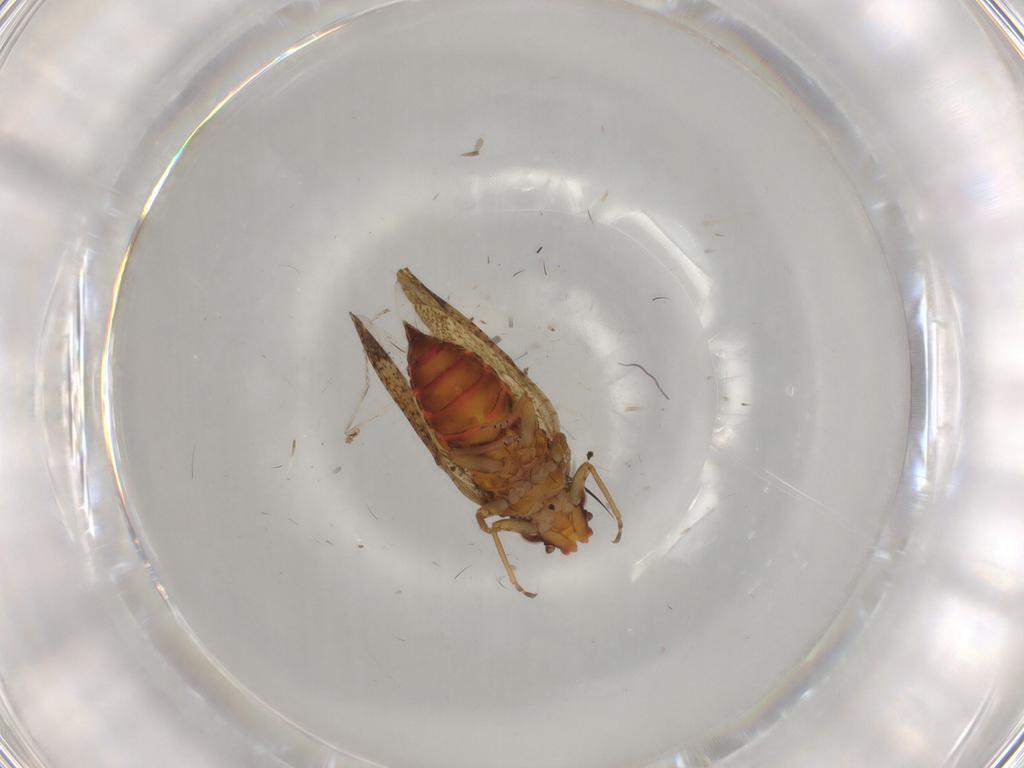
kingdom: Animalia
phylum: Arthropoda
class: Insecta
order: Hemiptera
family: Psyllidae
